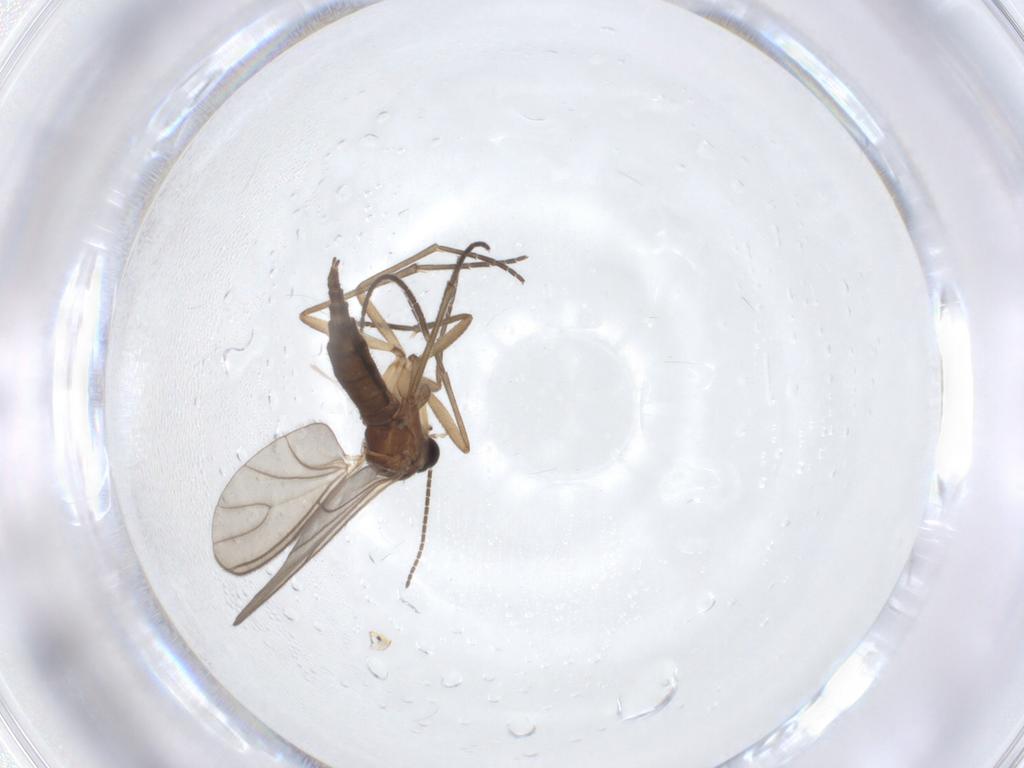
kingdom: Animalia
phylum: Arthropoda
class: Insecta
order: Diptera
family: Sciaridae
